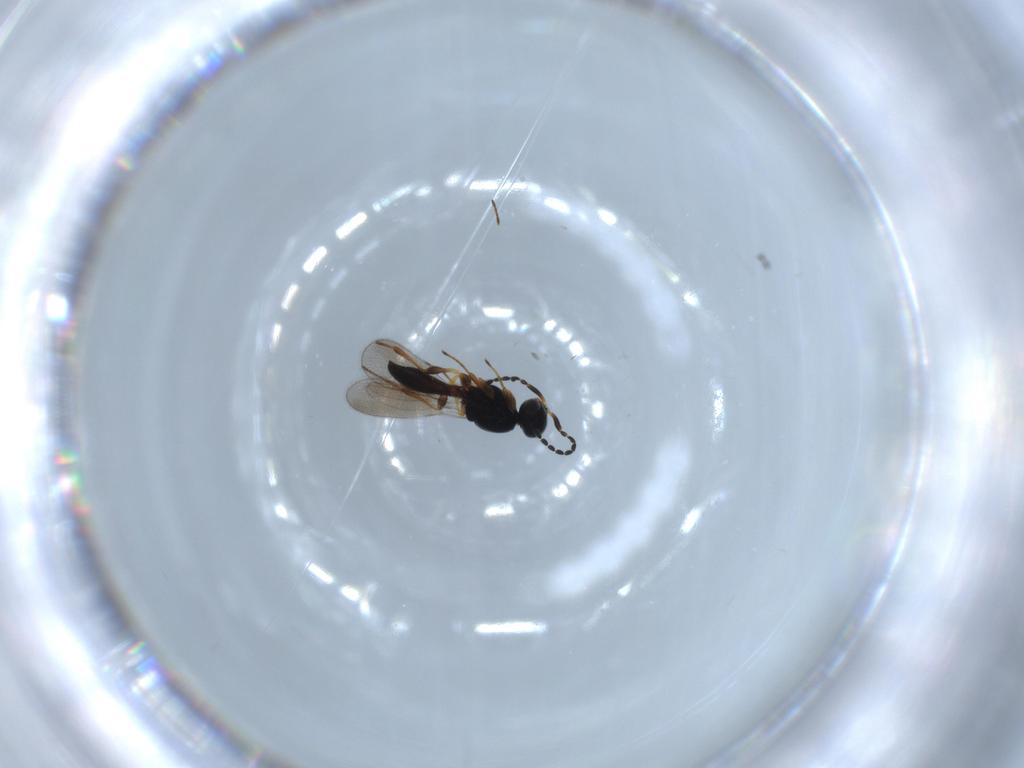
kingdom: Animalia
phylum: Arthropoda
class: Insecta
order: Hymenoptera
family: Platygastridae
